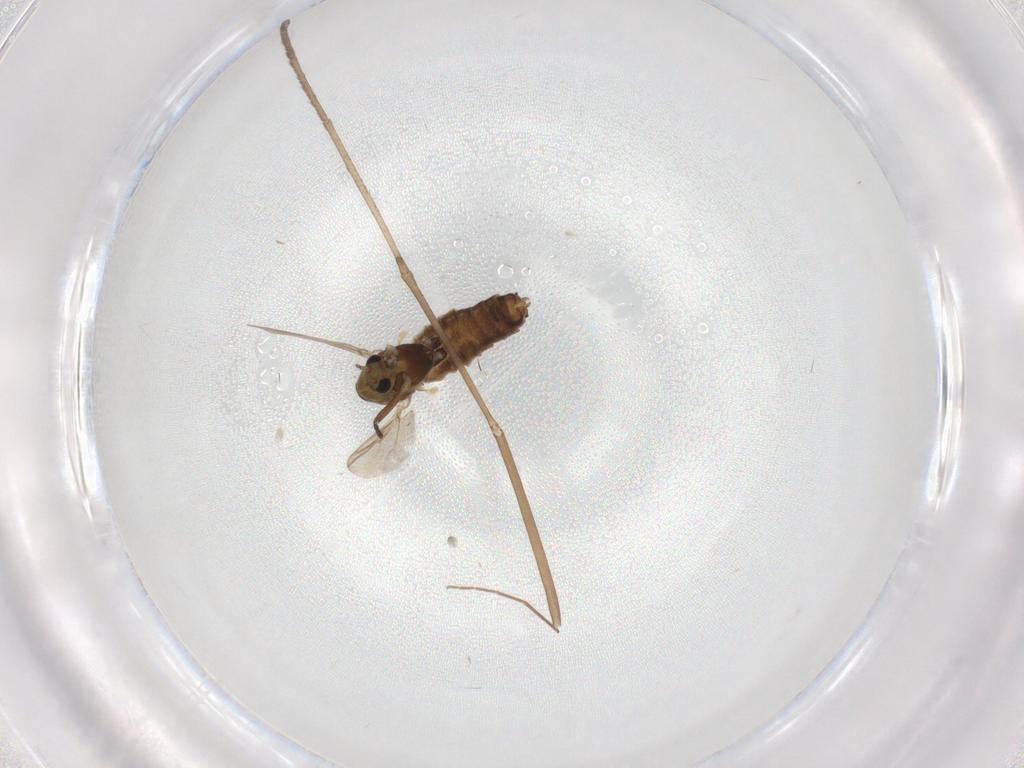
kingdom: Animalia
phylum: Arthropoda
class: Insecta
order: Diptera
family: Chironomidae
